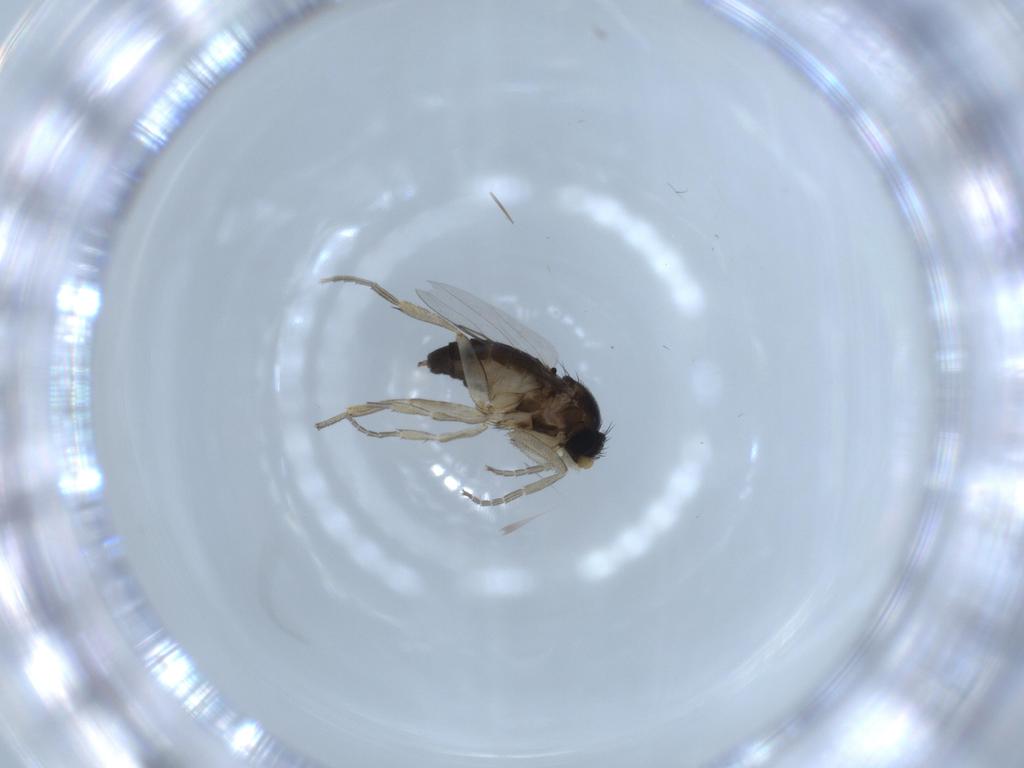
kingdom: Animalia
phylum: Arthropoda
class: Insecta
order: Diptera
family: Phoridae
